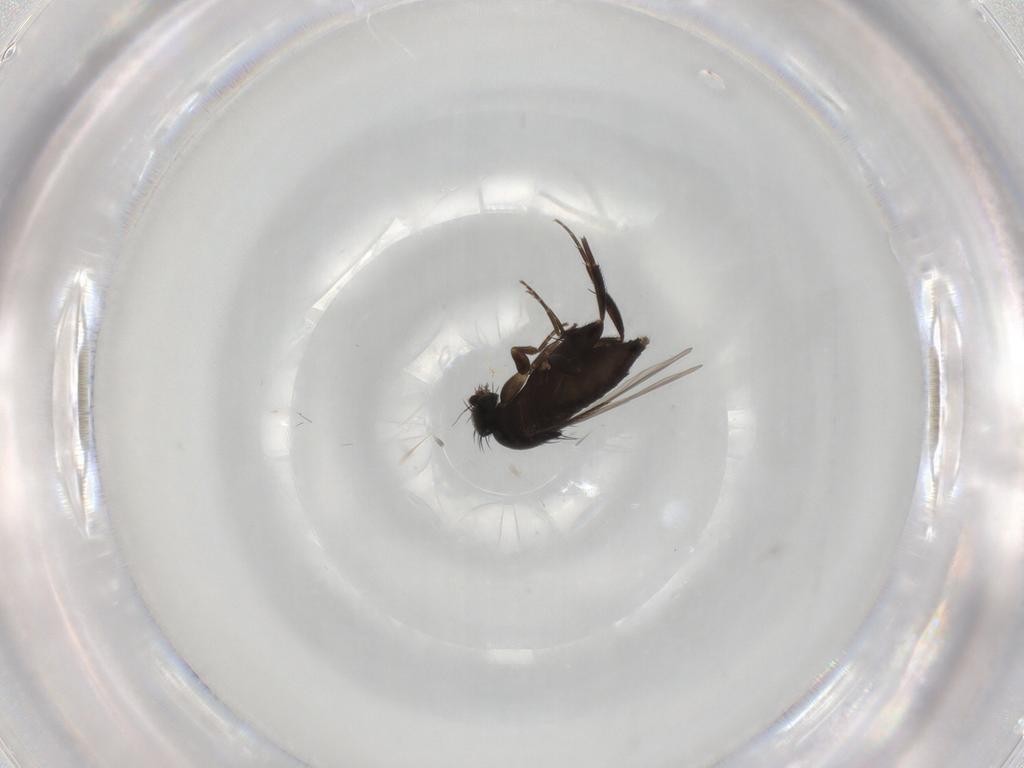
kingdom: Animalia
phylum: Arthropoda
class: Insecta
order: Diptera
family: Phoridae
